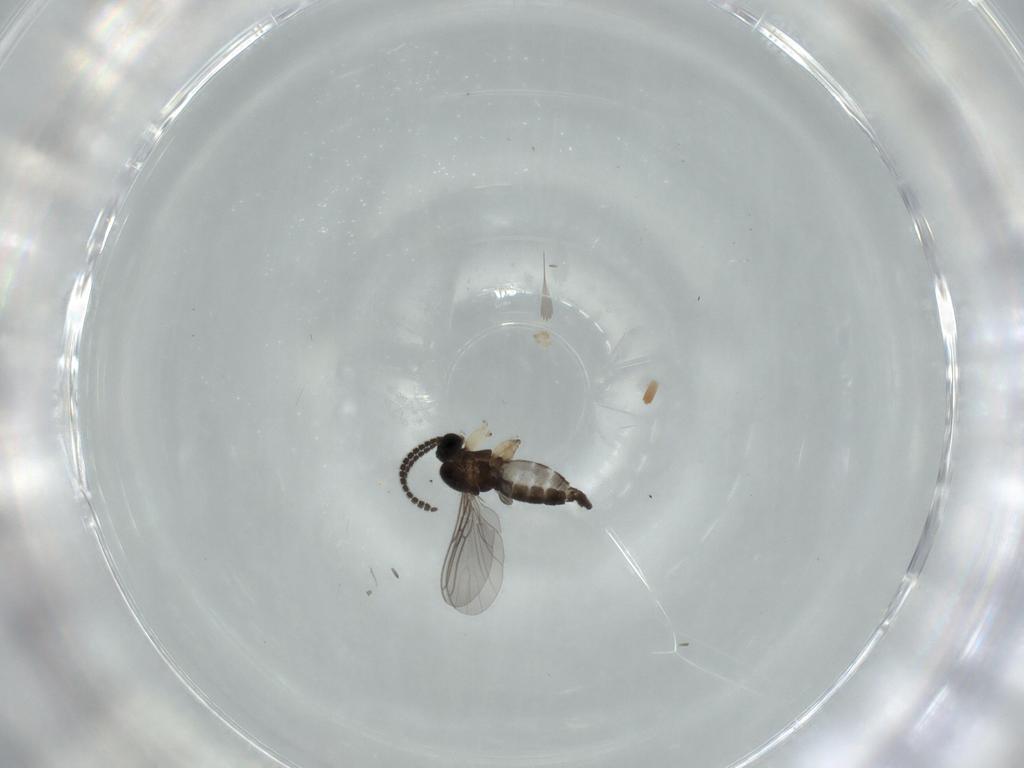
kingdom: Animalia
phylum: Arthropoda
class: Insecta
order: Diptera
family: Sciaridae
